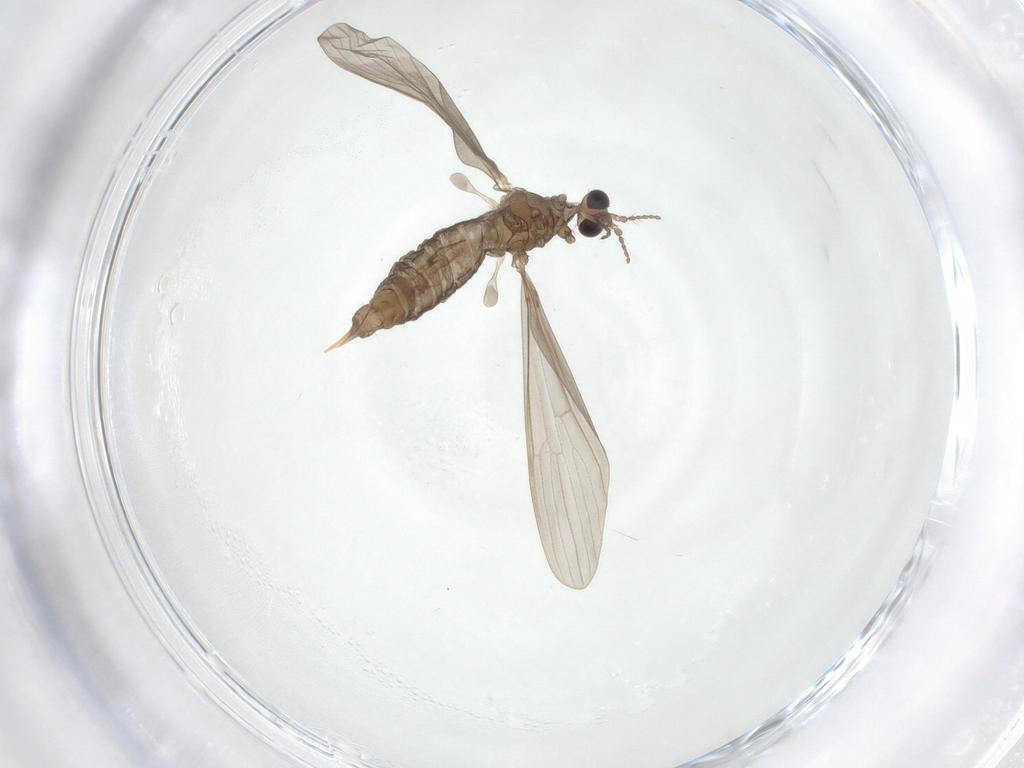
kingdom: Animalia
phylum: Arthropoda
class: Insecta
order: Diptera
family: Limoniidae
